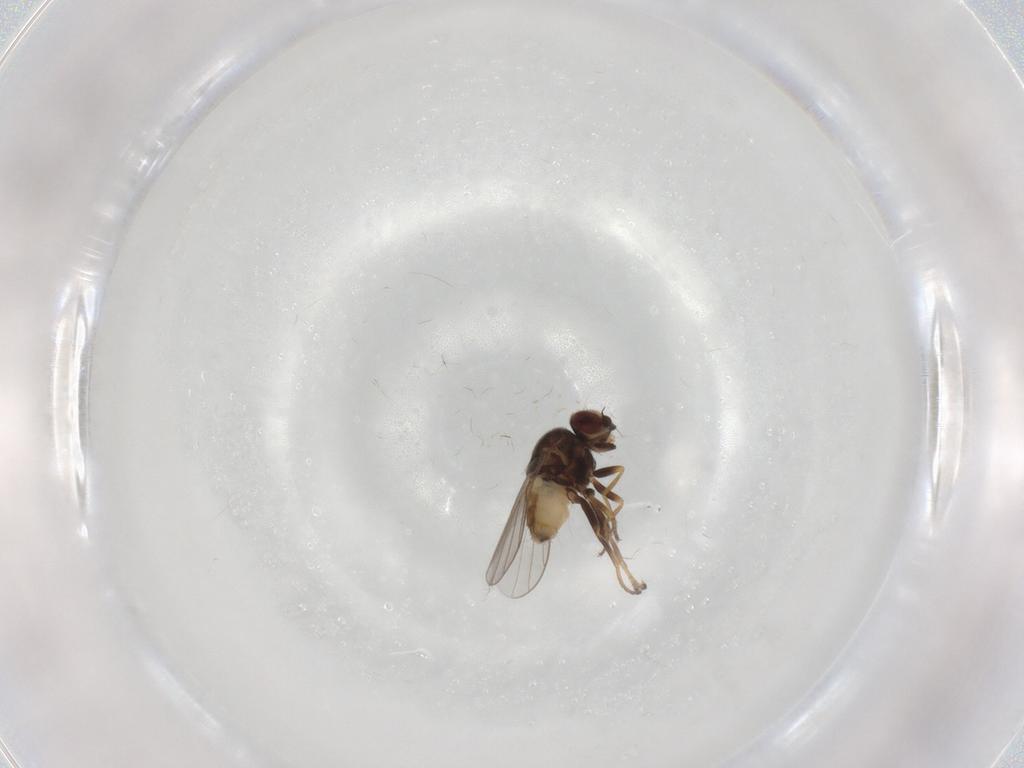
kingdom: Animalia
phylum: Arthropoda
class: Insecta
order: Diptera
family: Chloropidae
